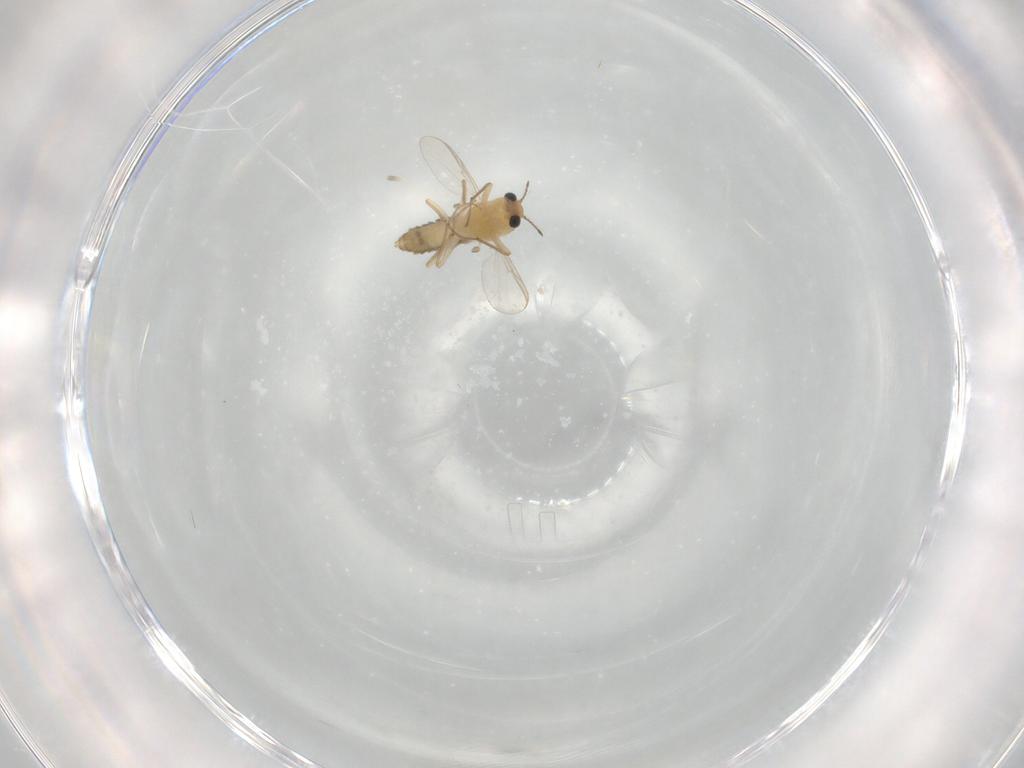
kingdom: Animalia
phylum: Arthropoda
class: Insecta
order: Diptera
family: Chironomidae
